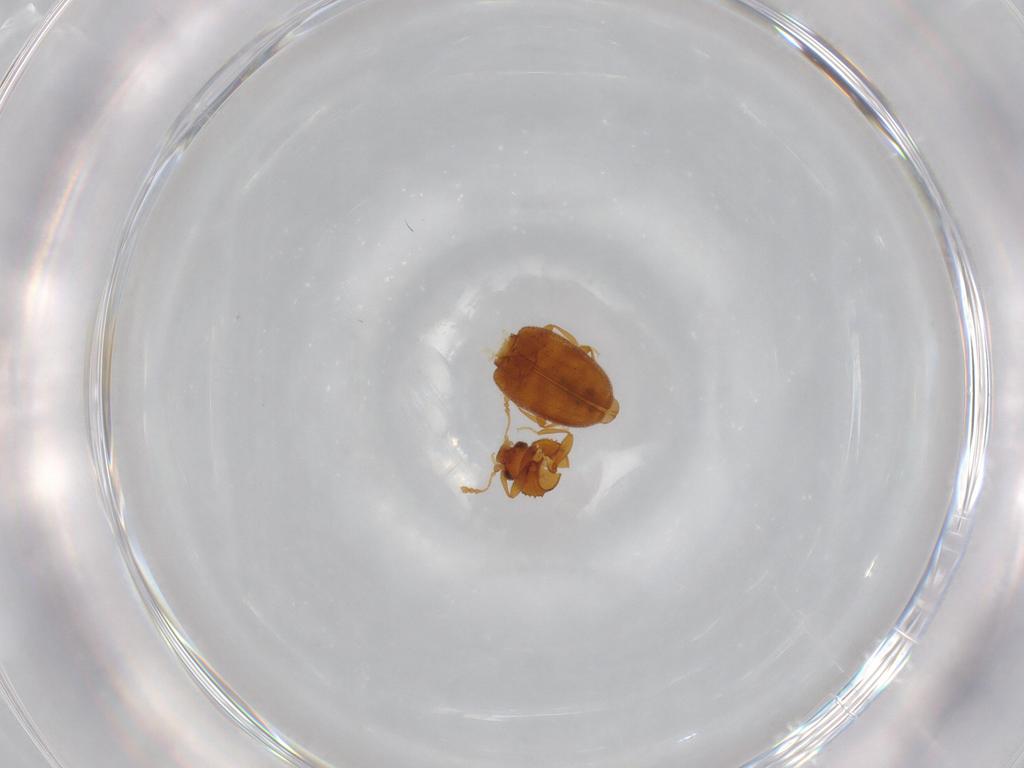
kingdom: Animalia
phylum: Arthropoda
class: Insecta
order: Coleoptera
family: Latridiidae
